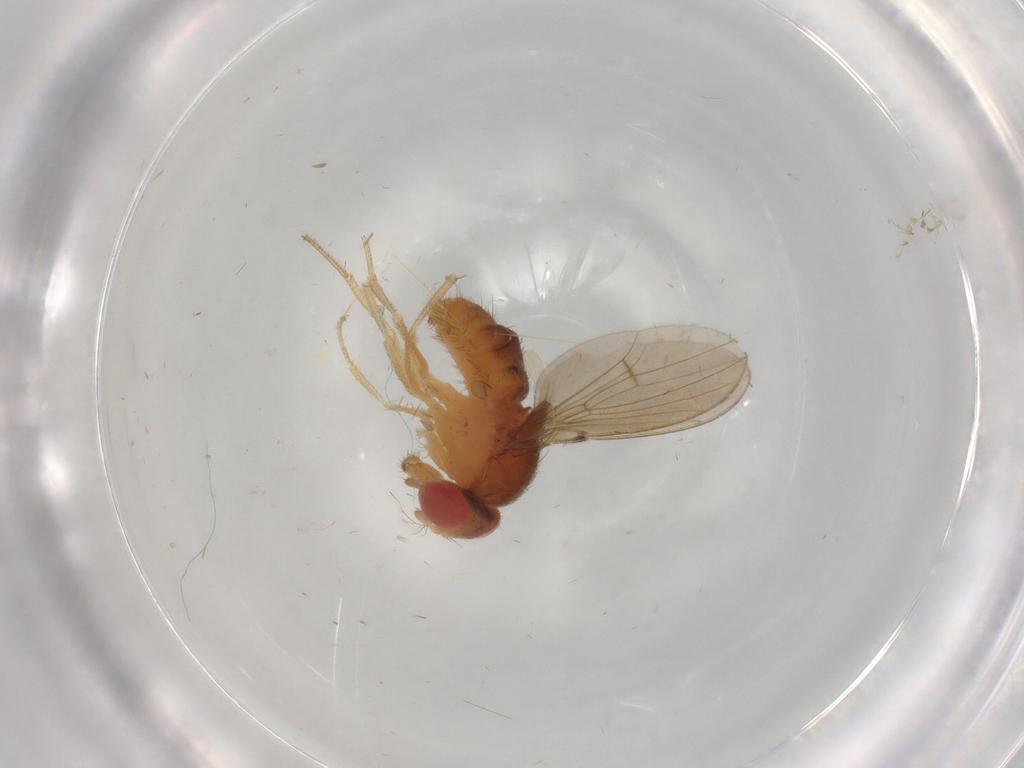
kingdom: Animalia
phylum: Arthropoda
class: Insecta
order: Diptera
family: Drosophilidae
